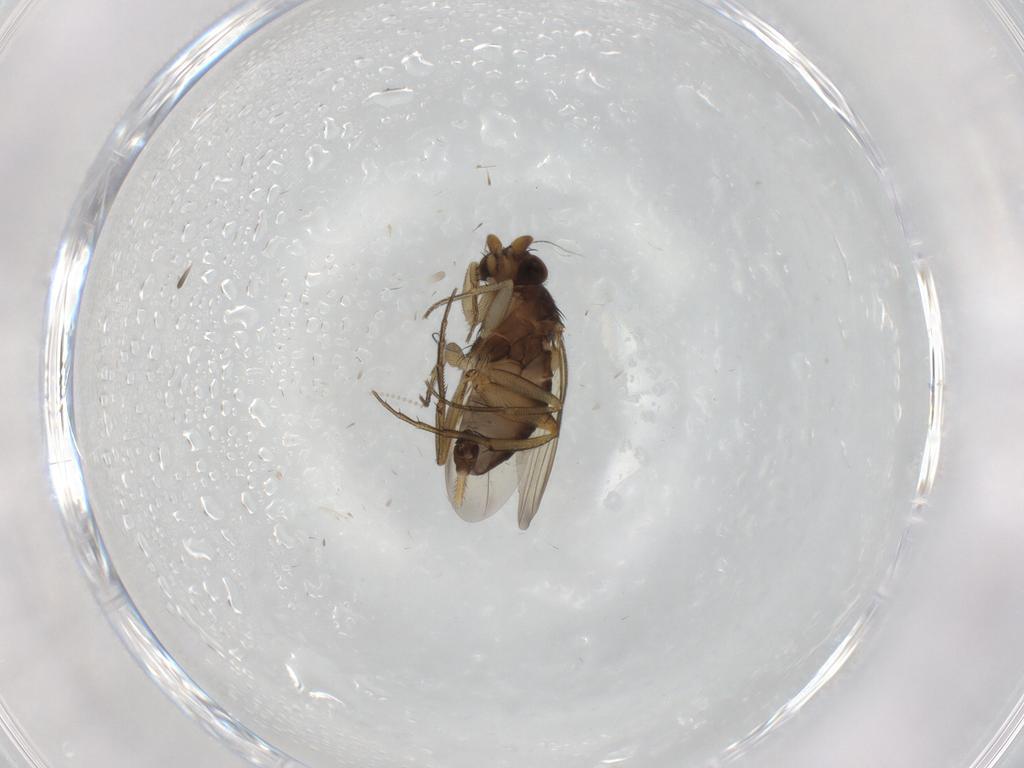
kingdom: Animalia
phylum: Arthropoda
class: Insecta
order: Diptera
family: Phoridae
